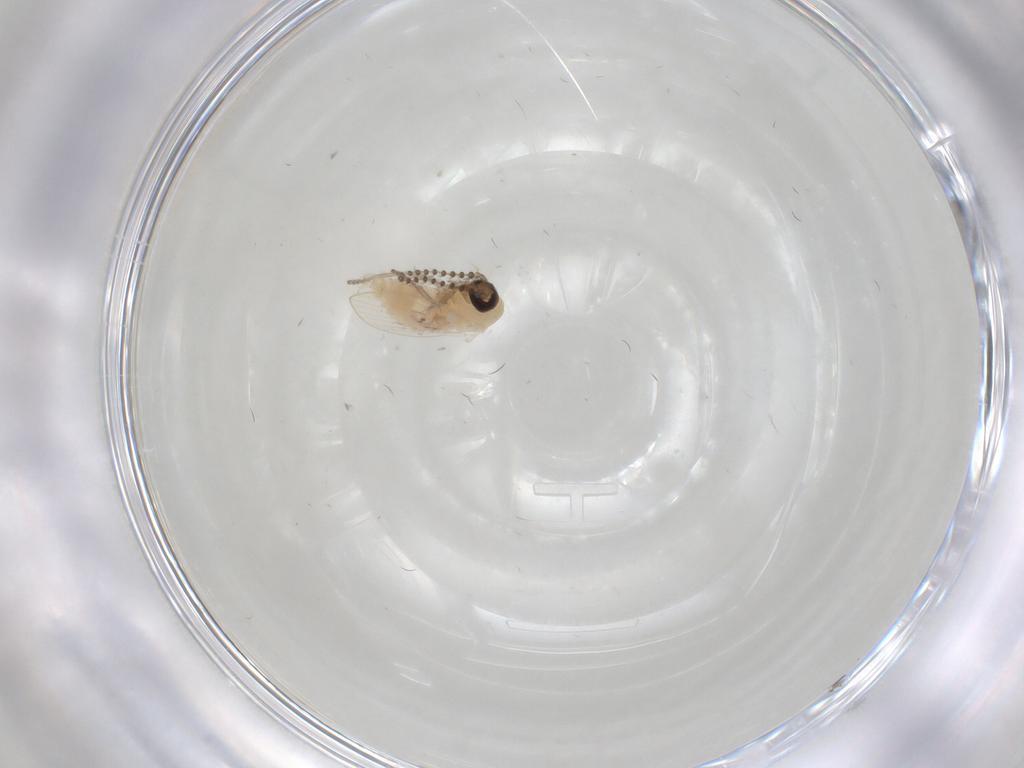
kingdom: Animalia
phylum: Arthropoda
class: Insecta
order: Diptera
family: Psychodidae
